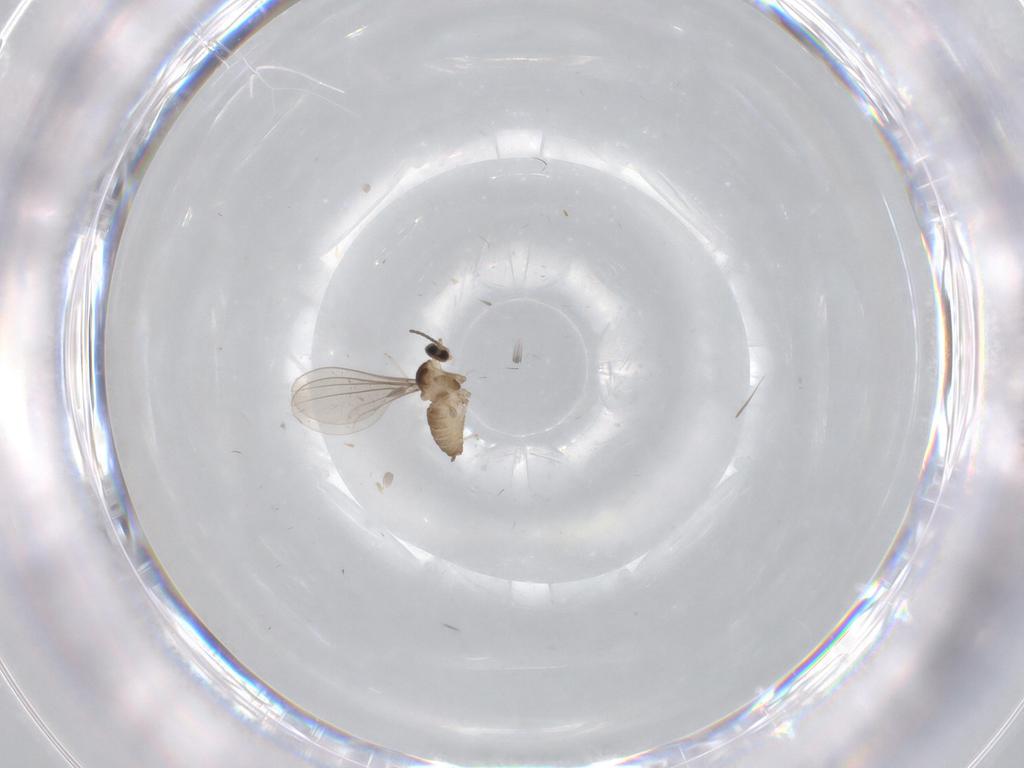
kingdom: Animalia
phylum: Arthropoda
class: Insecta
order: Diptera
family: Cecidomyiidae
